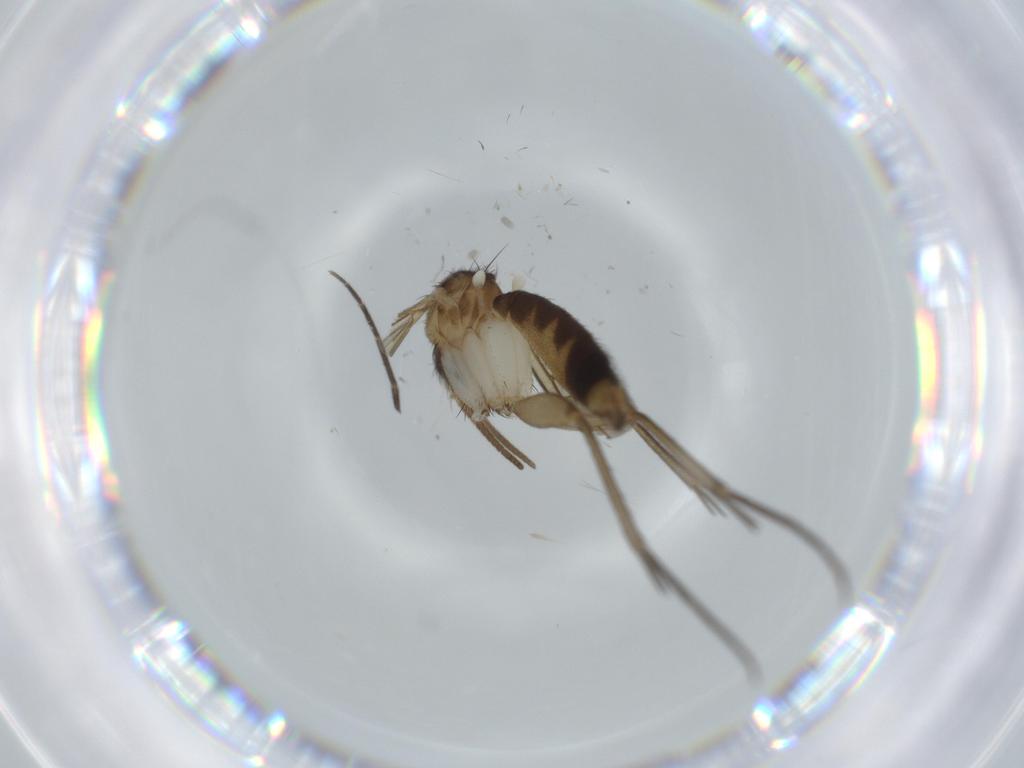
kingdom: Animalia
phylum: Arthropoda
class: Insecta
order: Diptera
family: Mycetophilidae
